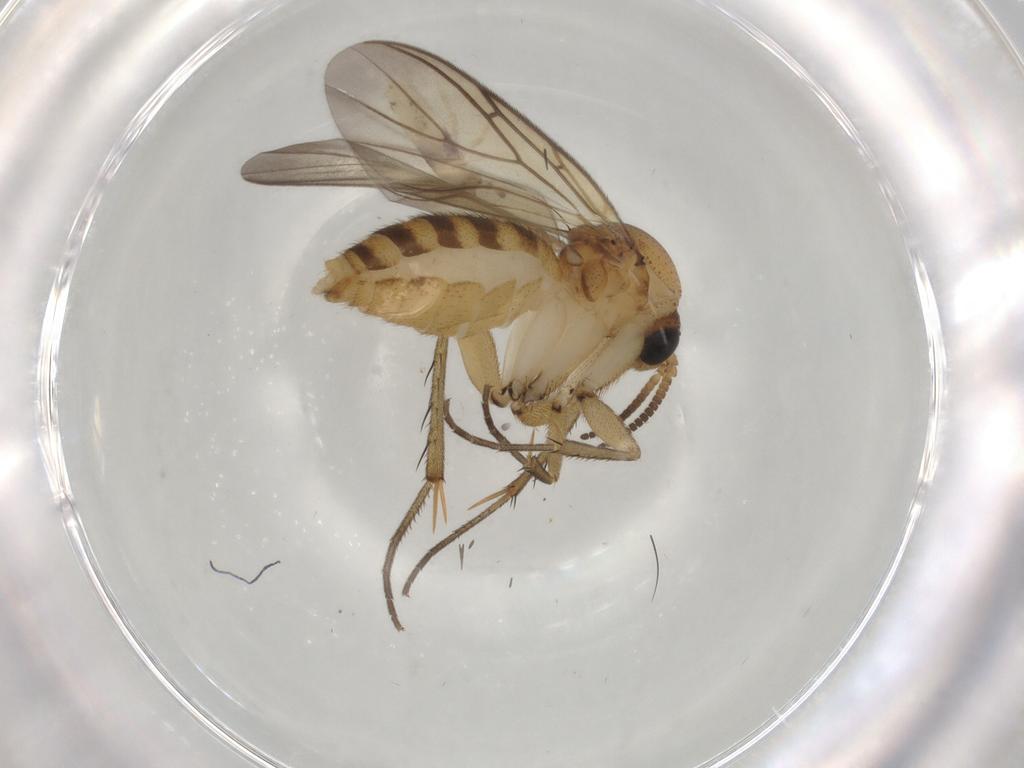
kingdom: Animalia
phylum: Arthropoda
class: Insecta
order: Diptera
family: Mycetophilidae
